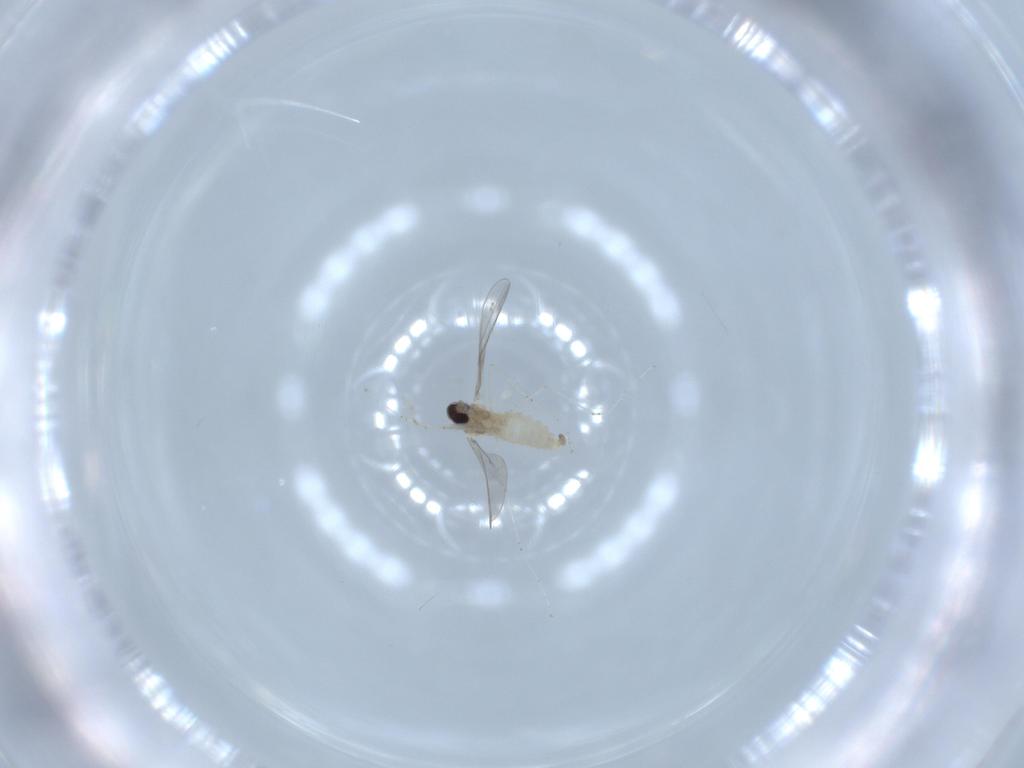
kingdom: Animalia
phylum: Arthropoda
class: Insecta
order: Diptera
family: Cecidomyiidae
